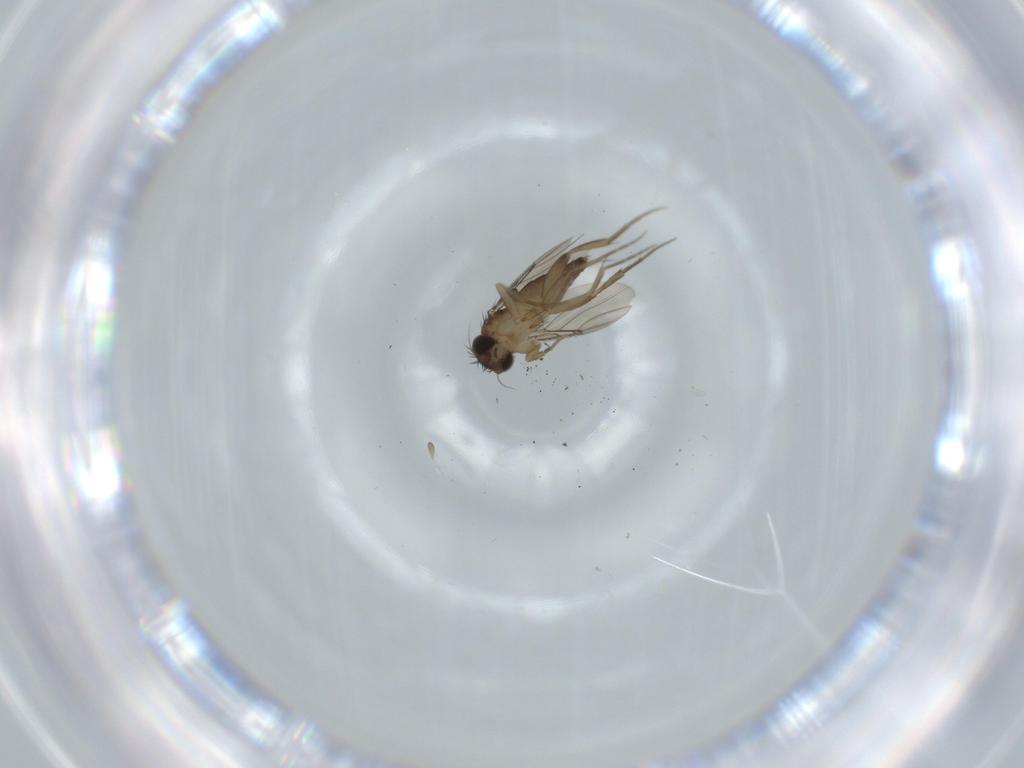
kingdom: Animalia
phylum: Arthropoda
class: Insecta
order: Diptera
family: Phoridae
